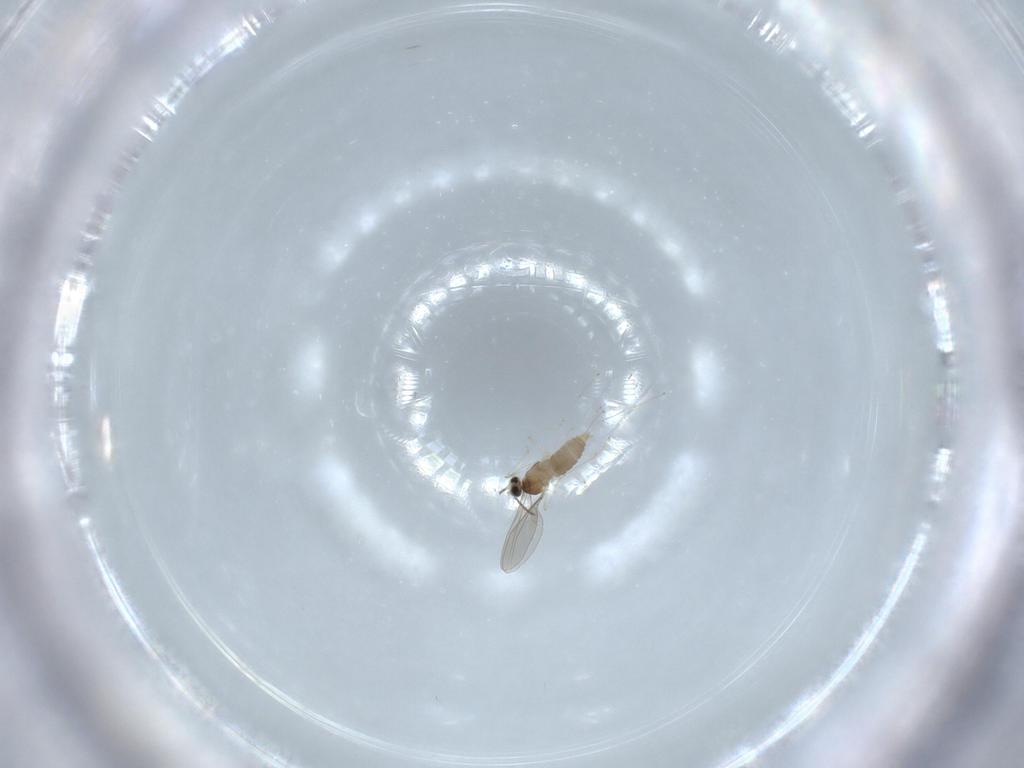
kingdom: Animalia
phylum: Arthropoda
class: Insecta
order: Diptera
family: Cecidomyiidae
